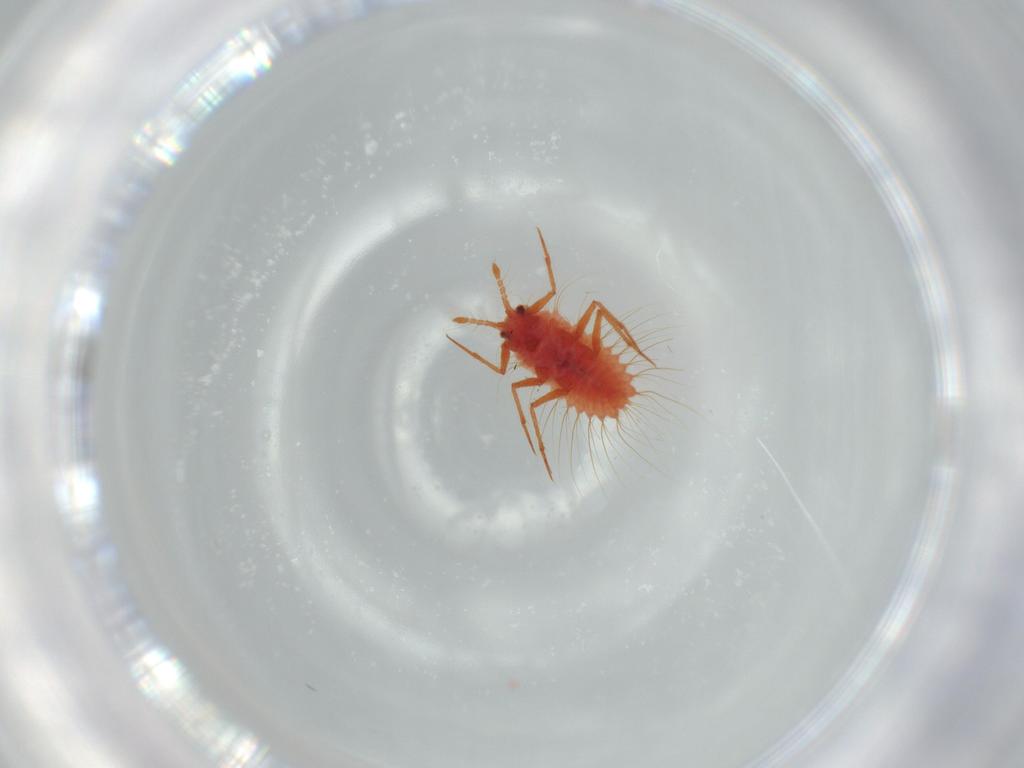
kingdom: Animalia
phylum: Arthropoda
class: Insecta
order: Hemiptera
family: Monophlebidae
